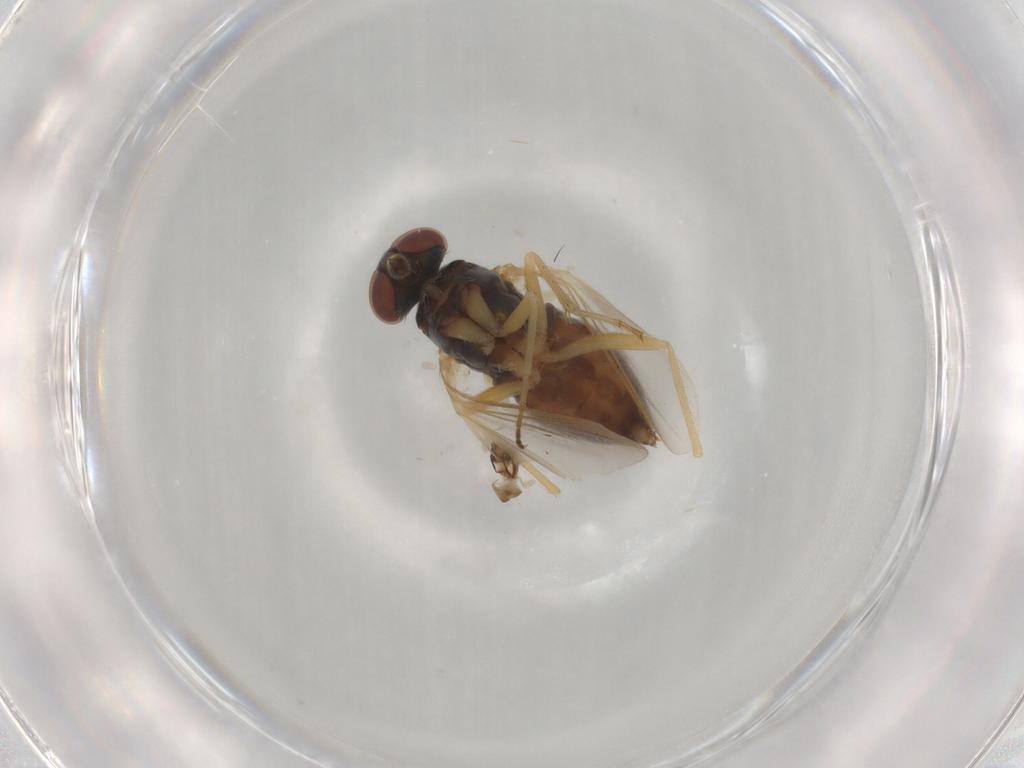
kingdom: Animalia
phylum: Arthropoda
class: Insecta
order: Diptera
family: Dolichopodidae
